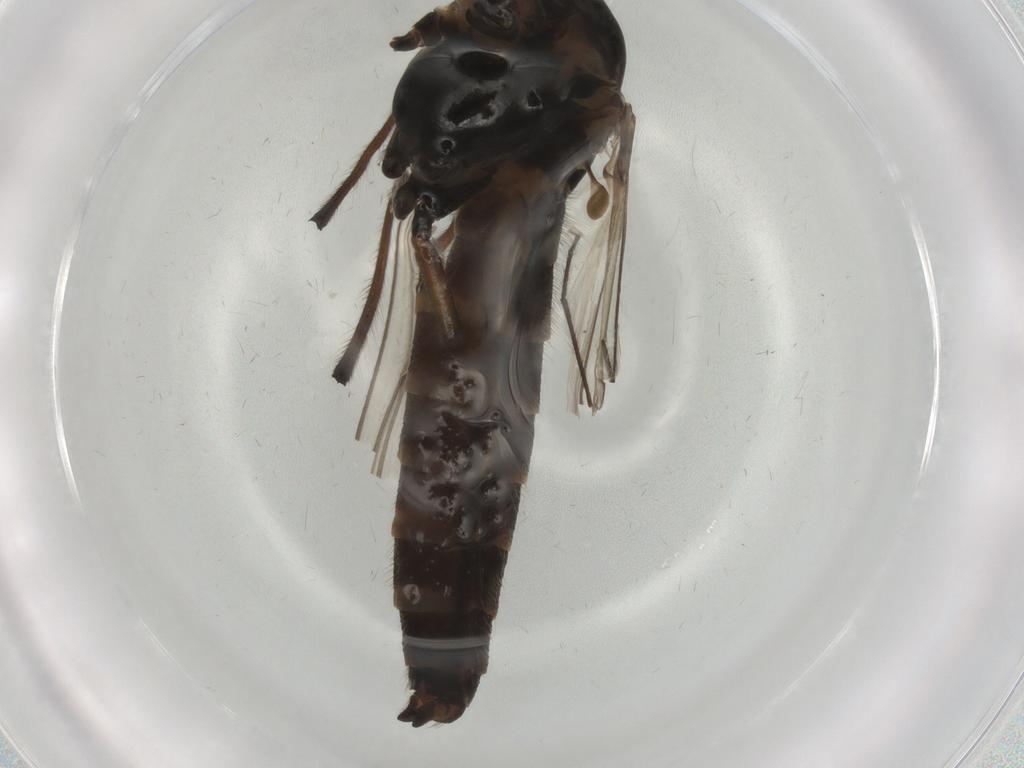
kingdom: Animalia
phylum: Arthropoda
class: Insecta
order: Diptera
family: Chironomidae
